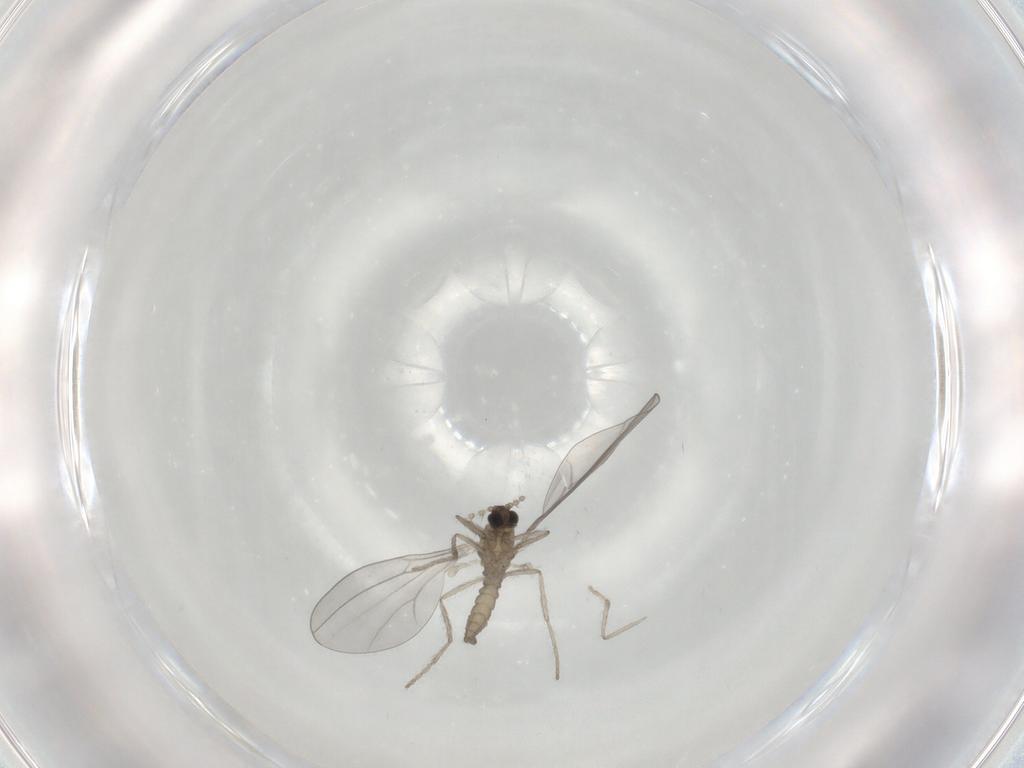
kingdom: Animalia
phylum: Arthropoda
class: Insecta
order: Diptera
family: Cecidomyiidae
